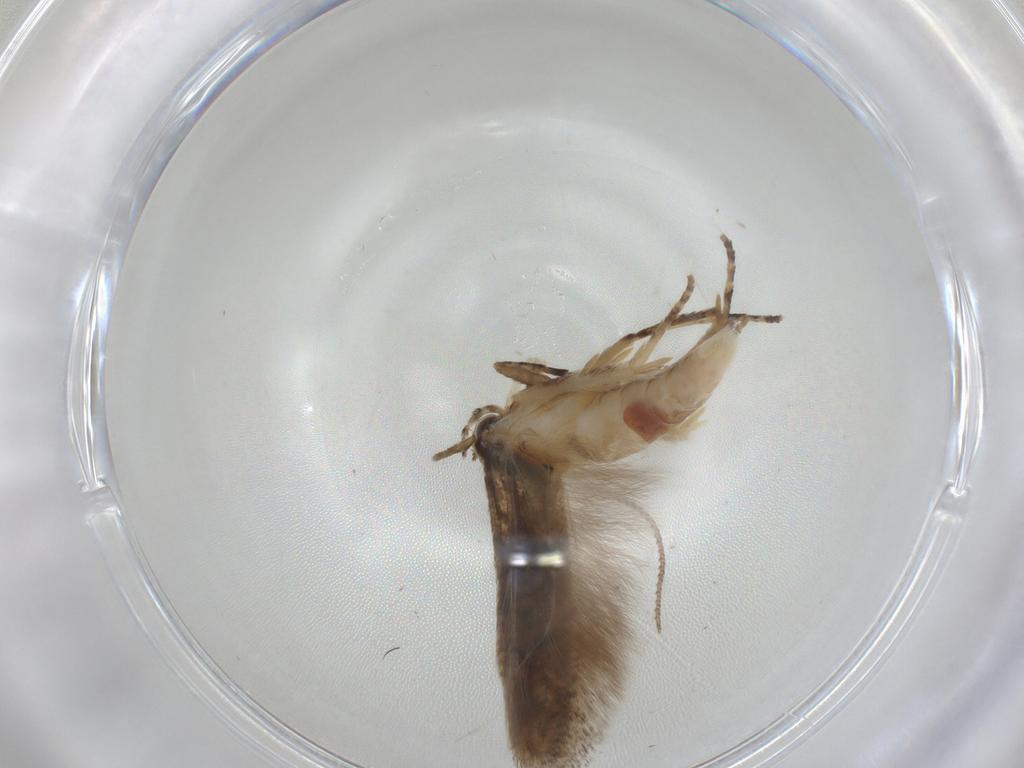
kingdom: Animalia
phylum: Arthropoda
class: Insecta
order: Lepidoptera
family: Gelechiidae
